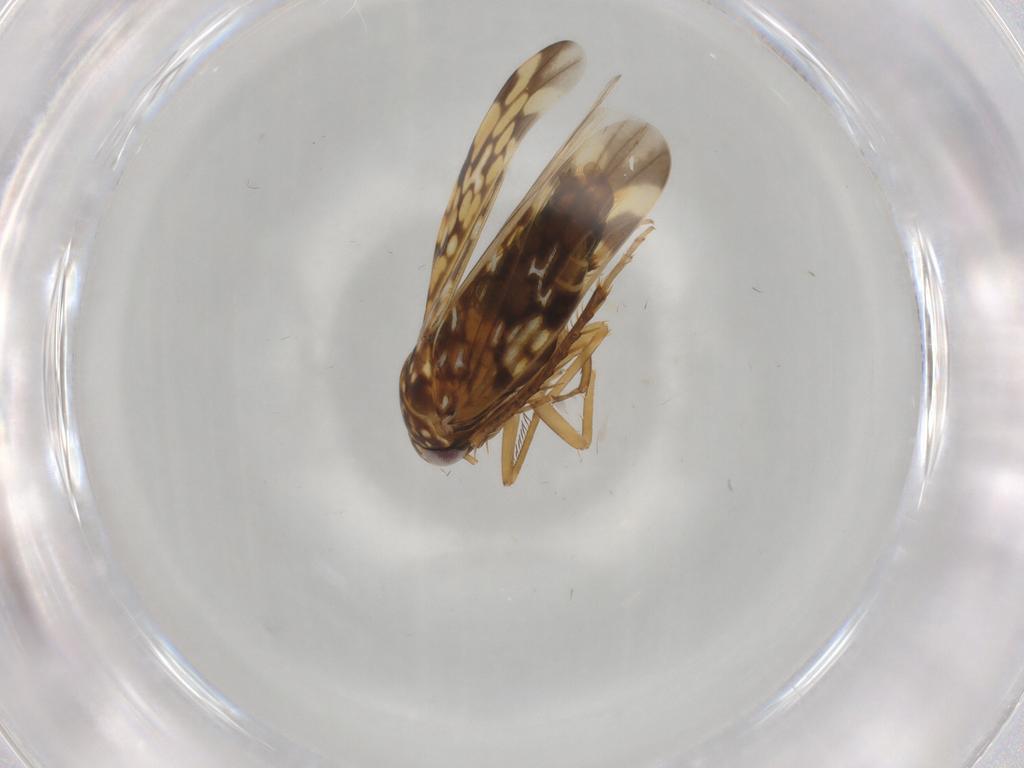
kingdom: Animalia
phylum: Arthropoda
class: Insecta
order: Hemiptera
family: Cicadellidae
